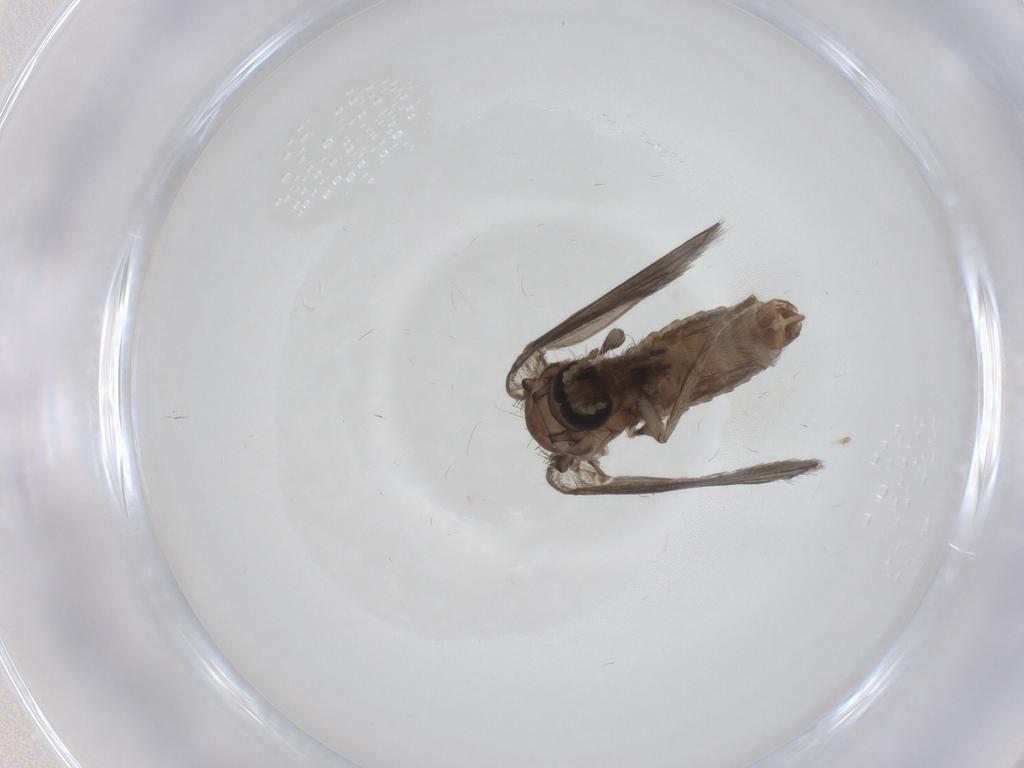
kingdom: Animalia
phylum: Arthropoda
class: Insecta
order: Diptera
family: Psychodidae
